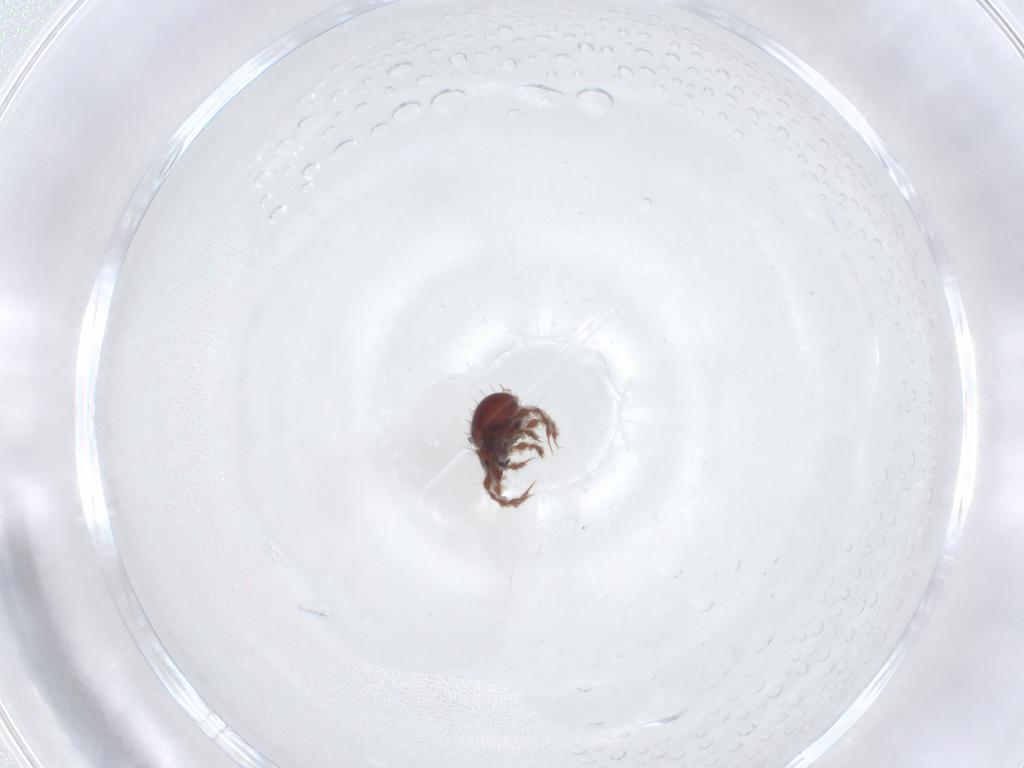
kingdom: Animalia
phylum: Arthropoda
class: Arachnida
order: Sarcoptiformes
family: Damaeidae
